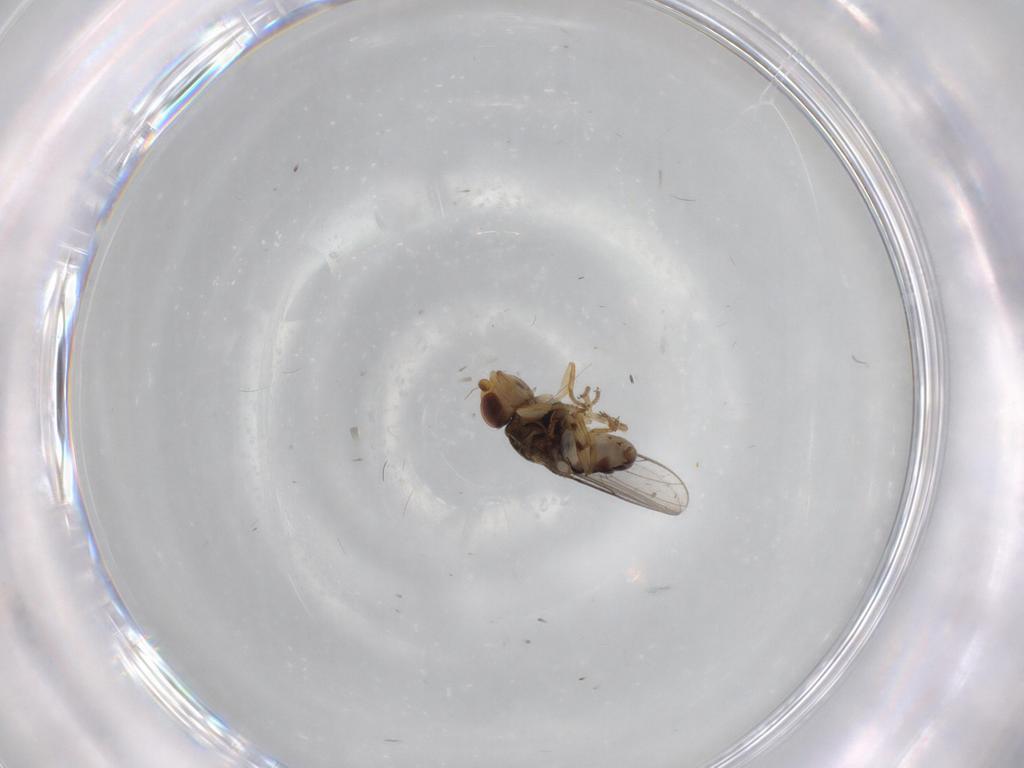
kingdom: Animalia
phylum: Arthropoda
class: Insecta
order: Diptera
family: Chloropidae
